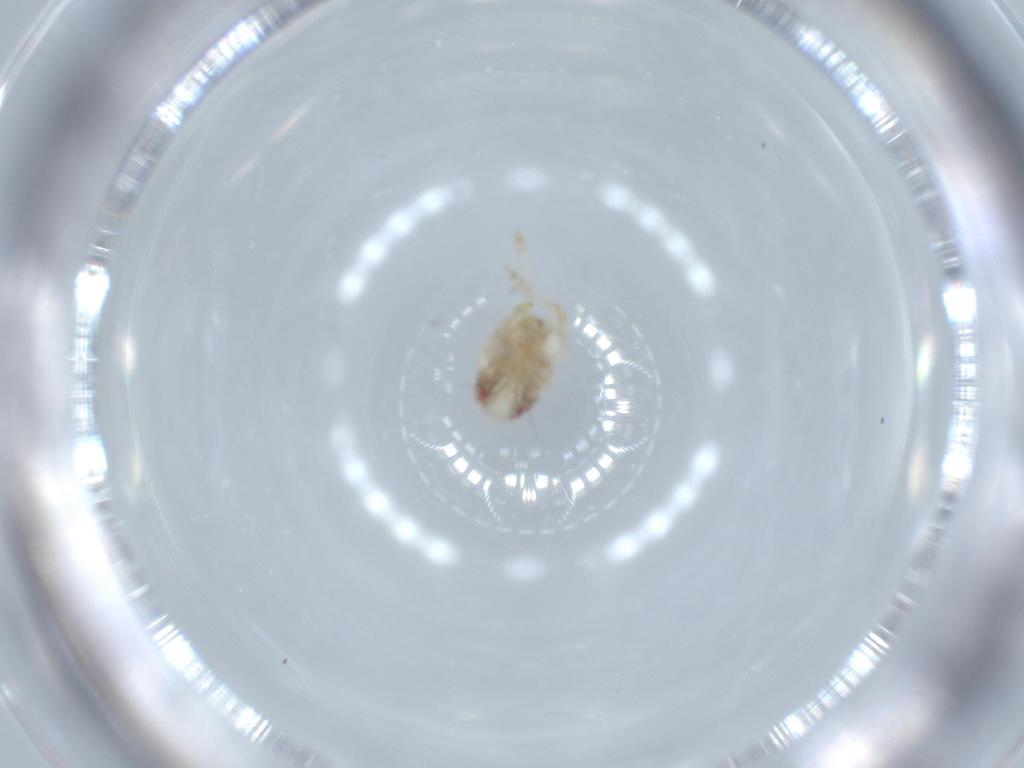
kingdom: Animalia
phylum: Arthropoda
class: Insecta
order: Hemiptera
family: Acanaloniidae
